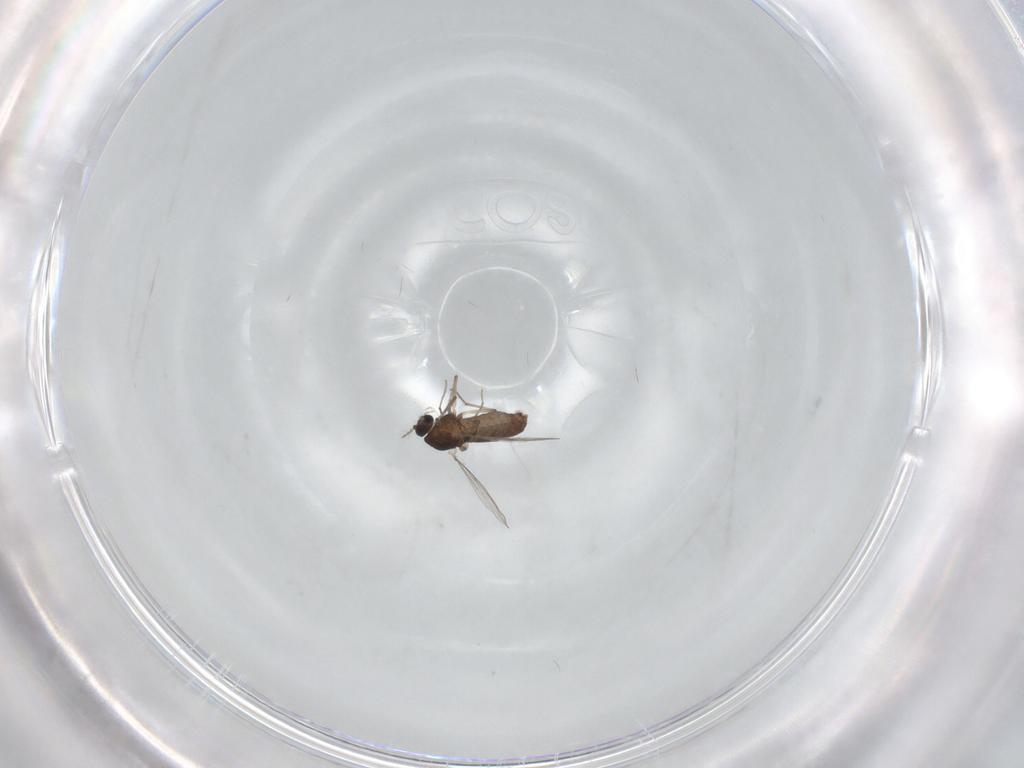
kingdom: Animalia
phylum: Arthropoda
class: Insecta
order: Diptera
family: Chironomidae
